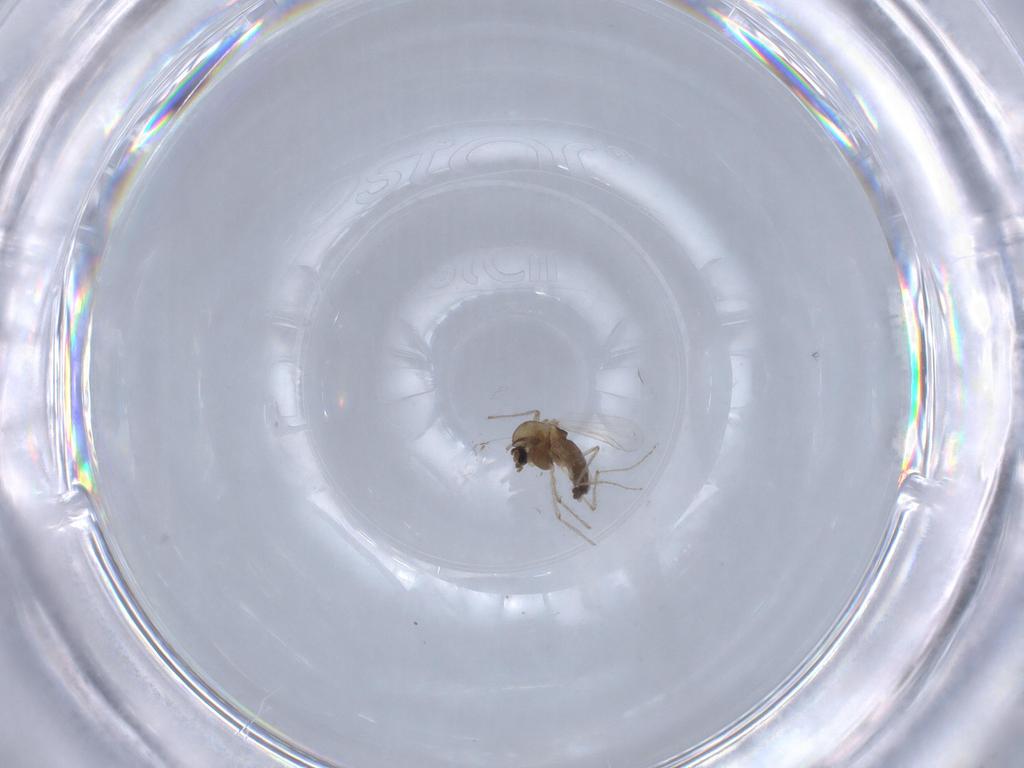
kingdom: Animalia
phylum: Arthropoda
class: Insecta
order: Diptera
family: Chironomidae
